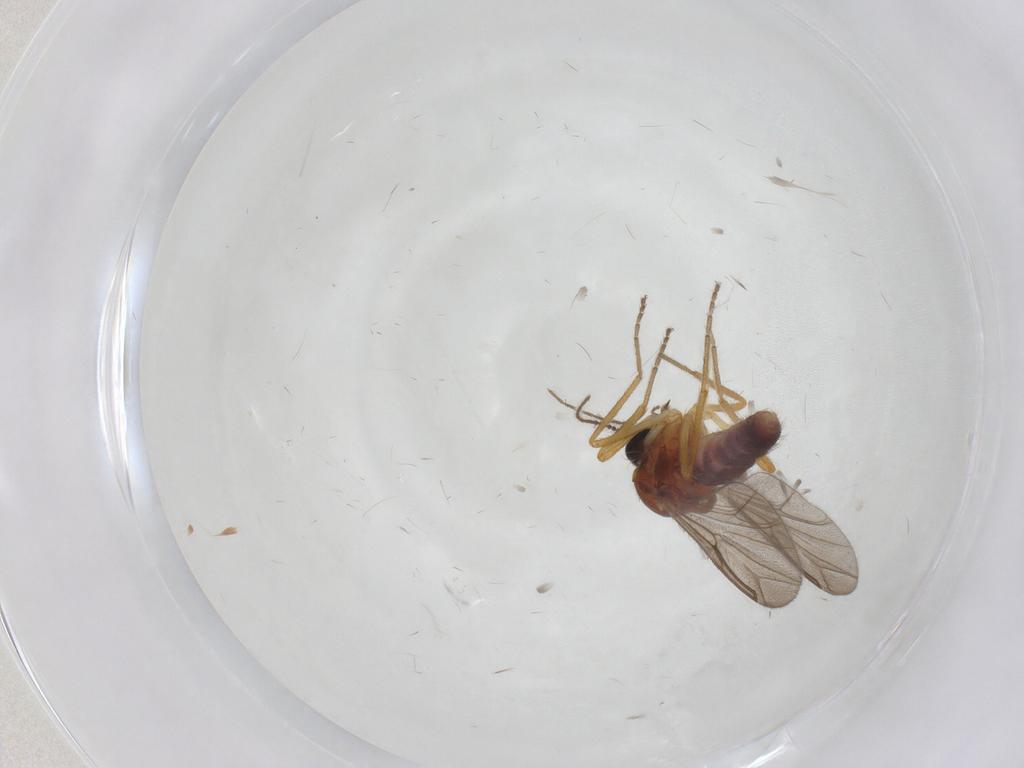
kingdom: Animalia
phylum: Arthropoda
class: Insecta
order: Diptera
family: Ceratopogonidae
